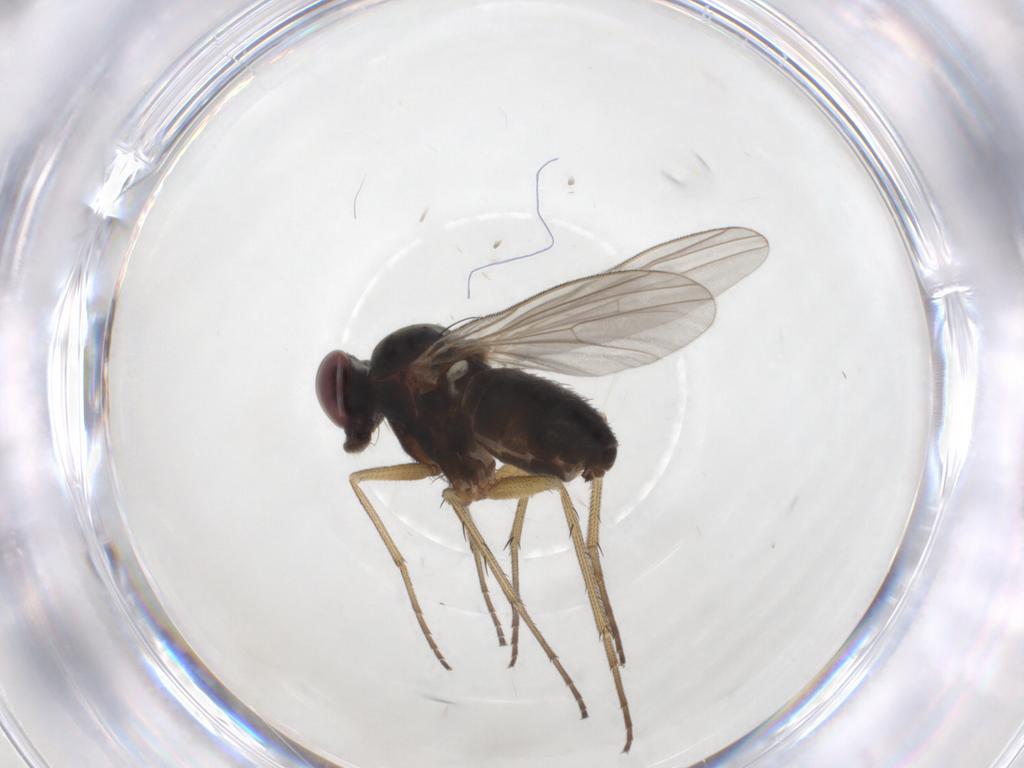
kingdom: Animalia
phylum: Arthropoda
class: Insecta
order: Diptera
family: Dolichopodidae
